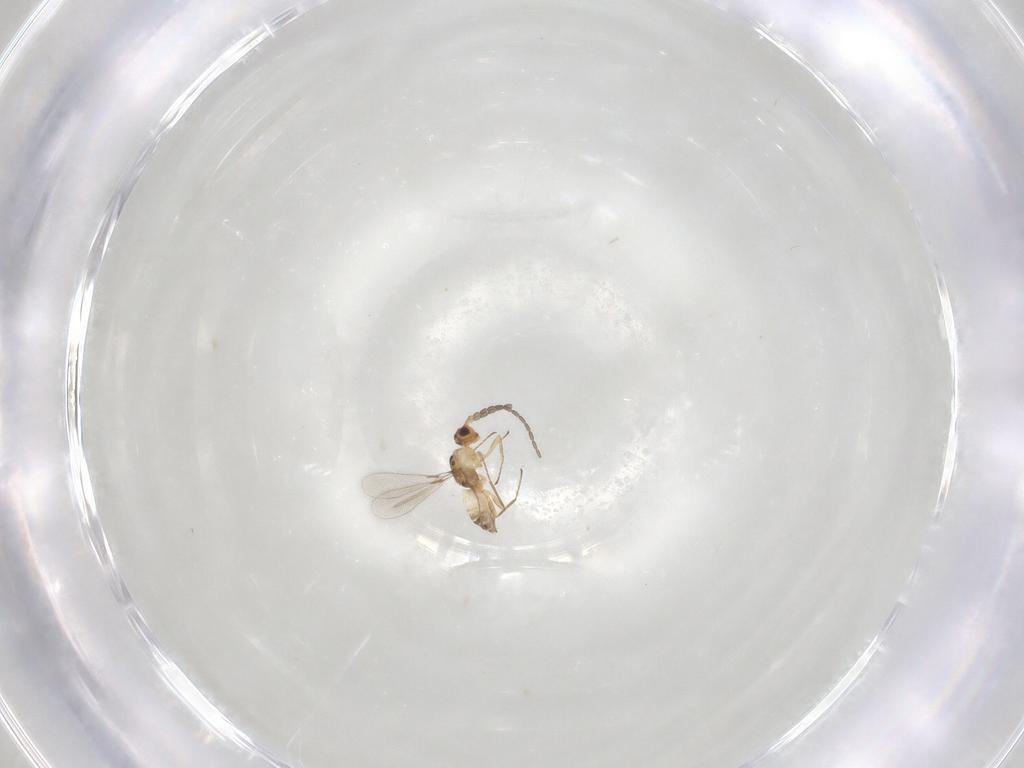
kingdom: Animalia
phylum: Arthropoda
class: Insecta
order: Hymenoptera
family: Mymaridae
